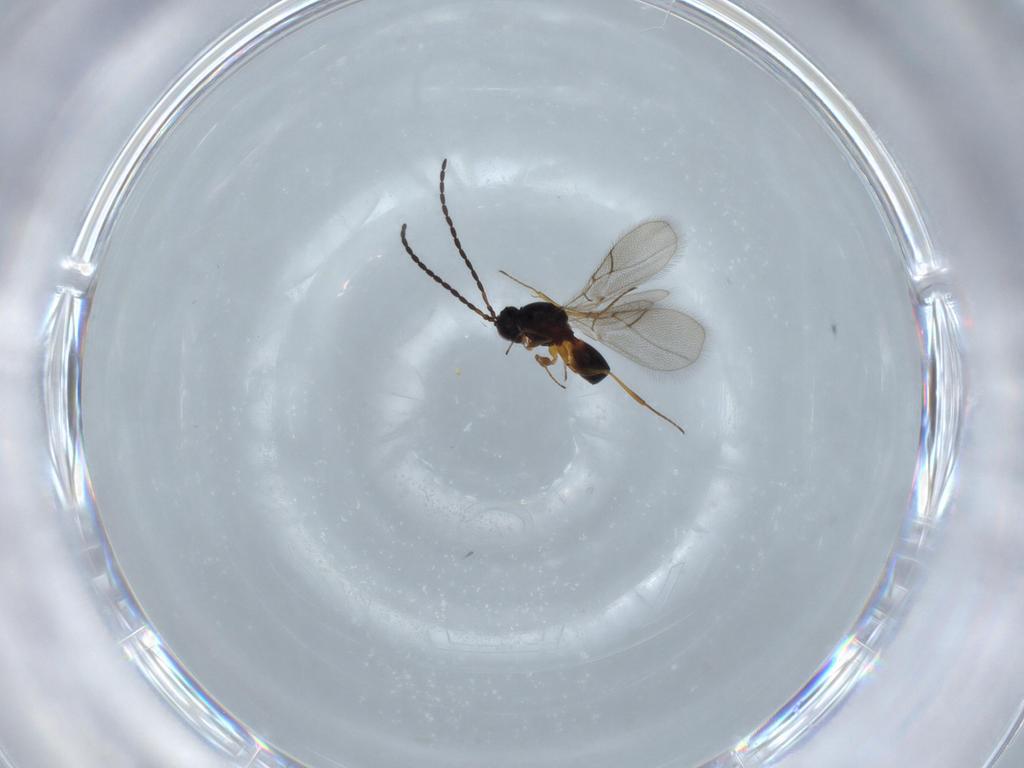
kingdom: Animalia
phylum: Arthropoda
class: Insecta
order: Hymenoptera
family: Figitidae
